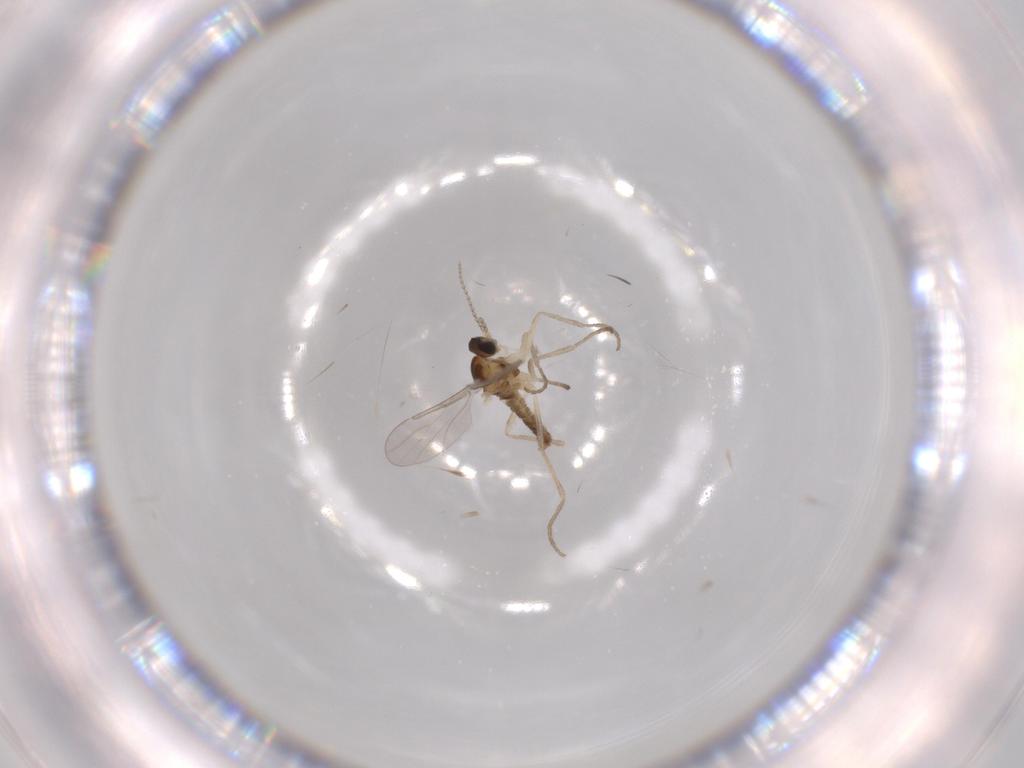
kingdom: Animalia
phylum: Arthropoda
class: Insecta
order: Diptera
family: Cecidomyiidae
